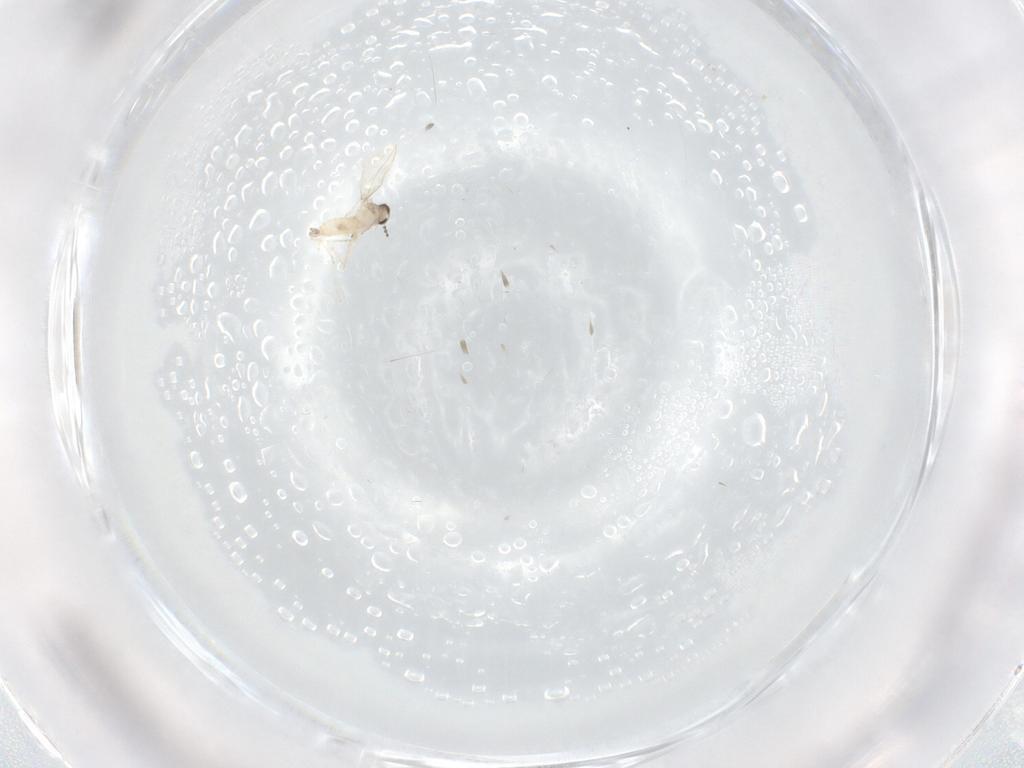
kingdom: Animalia
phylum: Arthropoda
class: Insecta
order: Diptera
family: Cecidomyiidae
